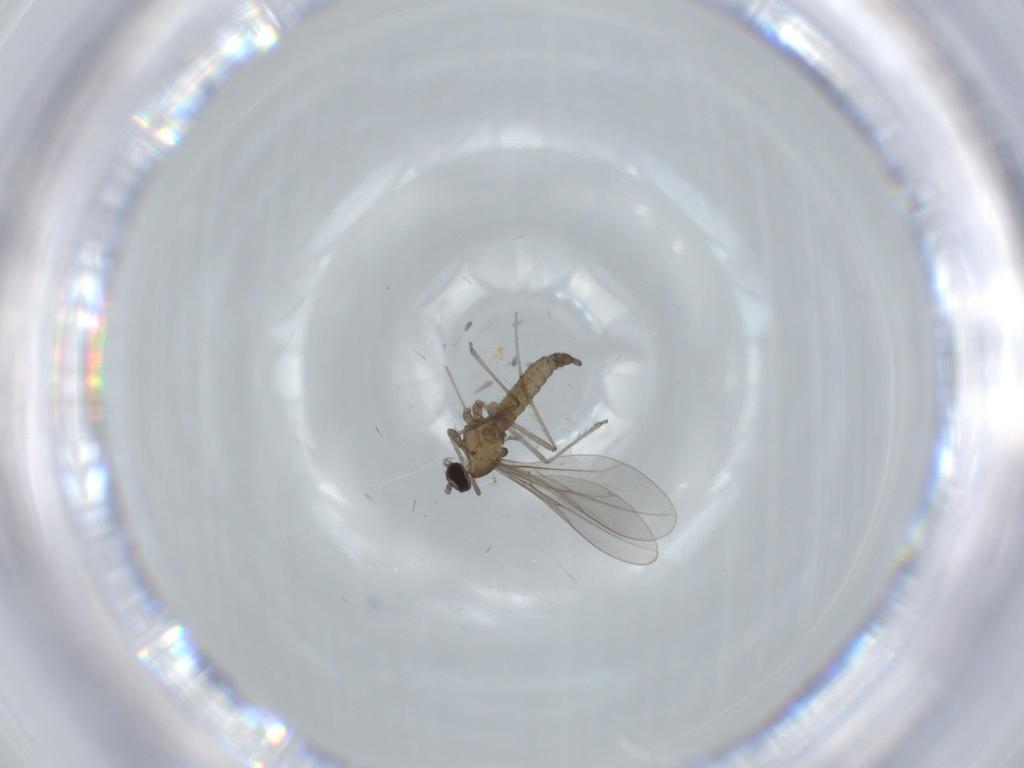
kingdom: Animalia
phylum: Arthropoda
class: Insecta
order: Diptera
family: Cecidomyiidae
